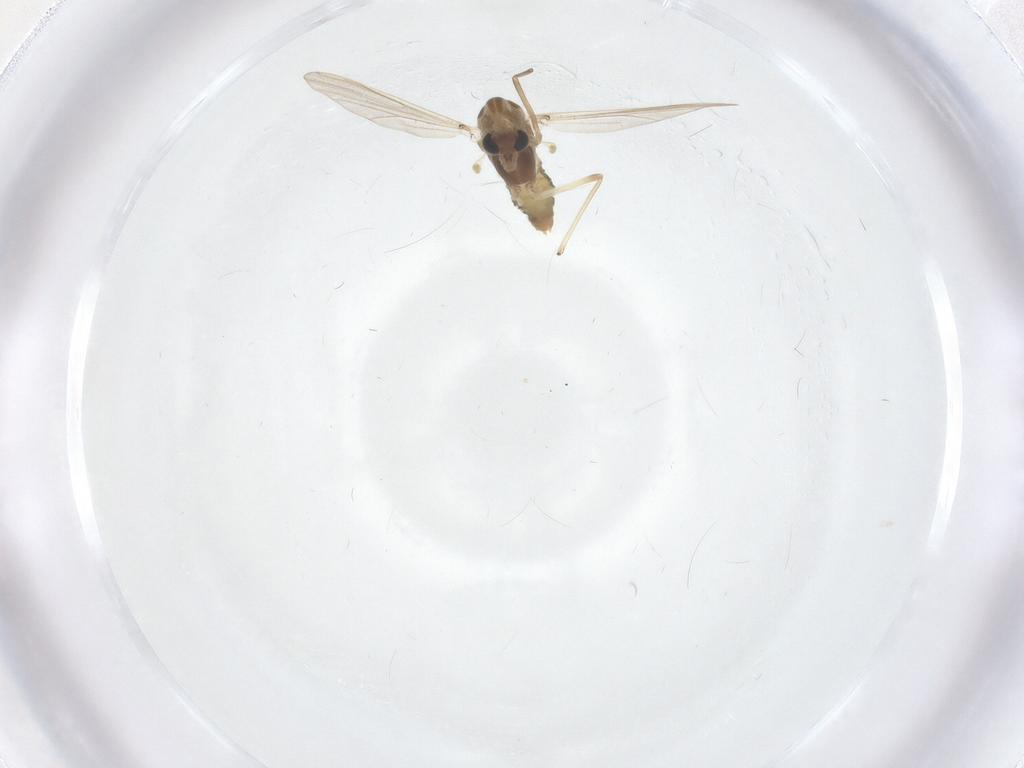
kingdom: Animalia
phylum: Arthropoda
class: Insecta
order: Diptera
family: Chironomidae
